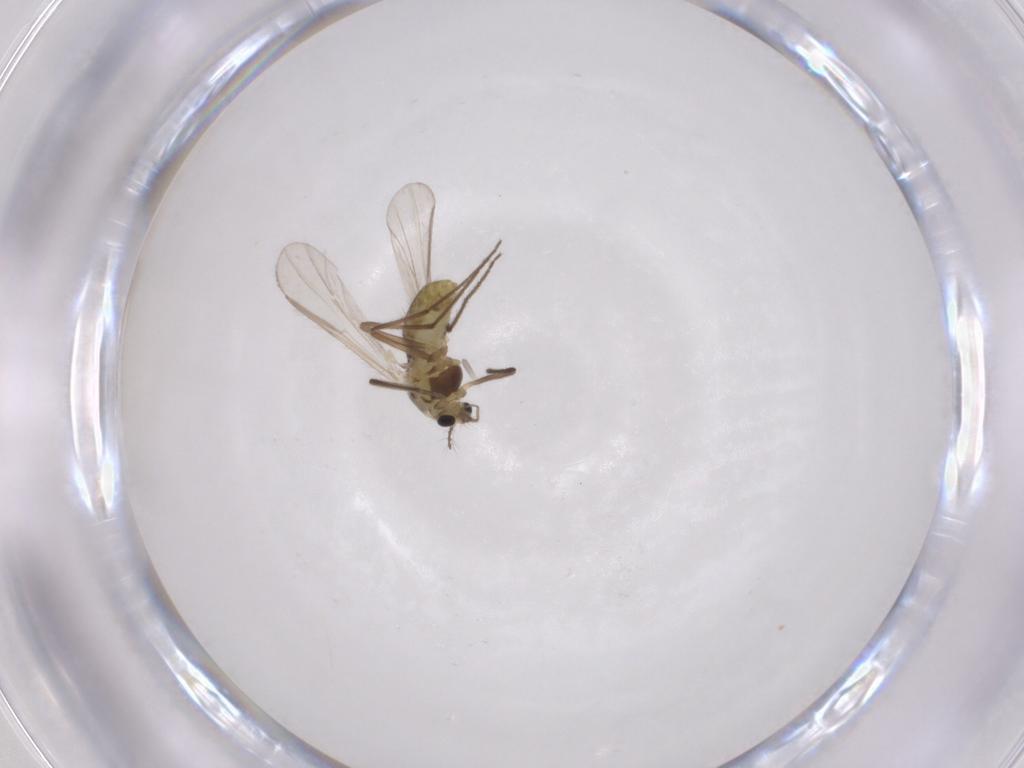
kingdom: Animalia
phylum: Arthropoda
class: Insecta
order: Diptera
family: Chironomidae
